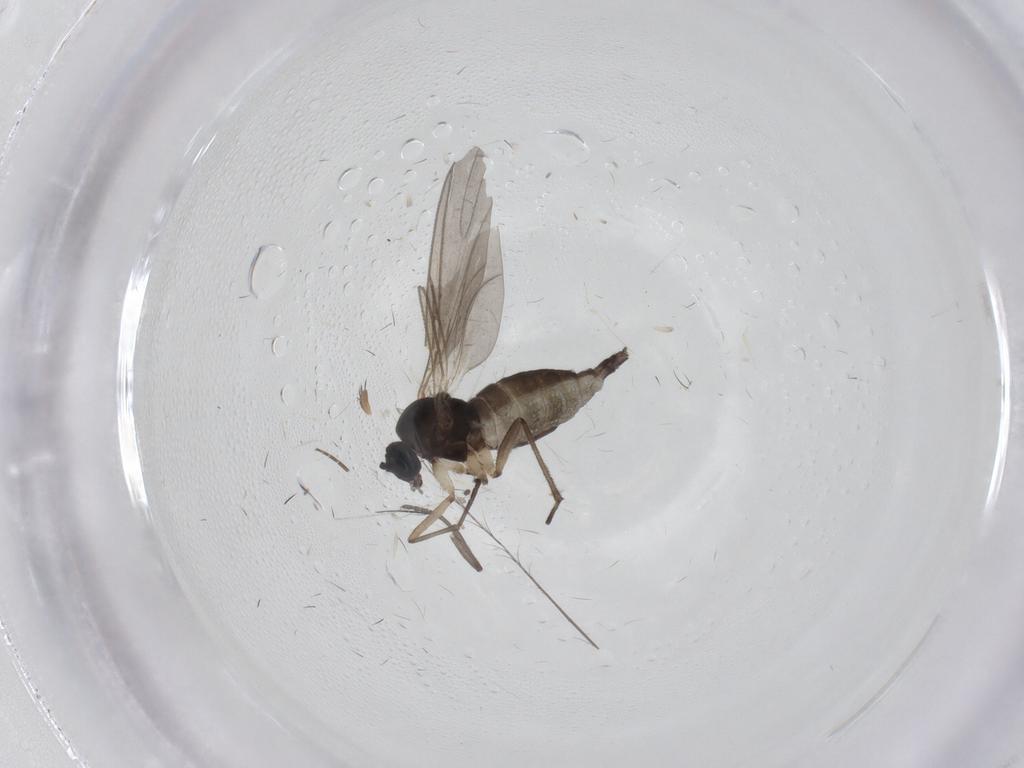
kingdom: Animalia
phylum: Arthropoda
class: Insecta
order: Diptera
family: Sciaridae
